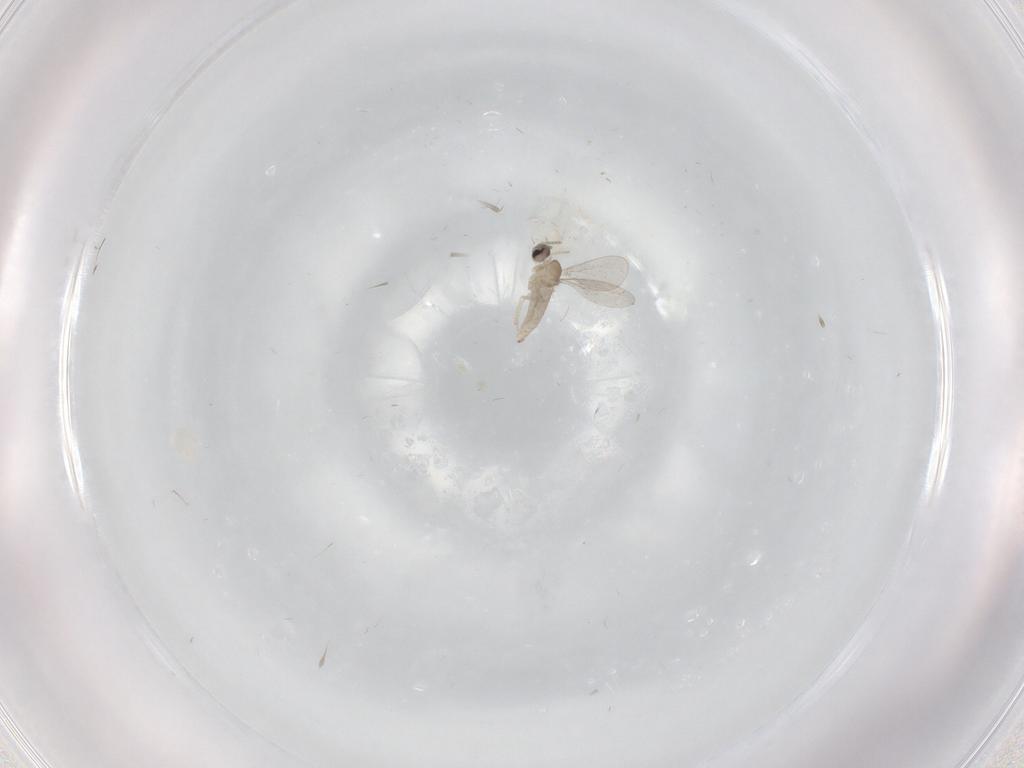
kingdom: Animalia
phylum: Arthropoda
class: Insecta
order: Diptera
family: Cecidomyiidae
